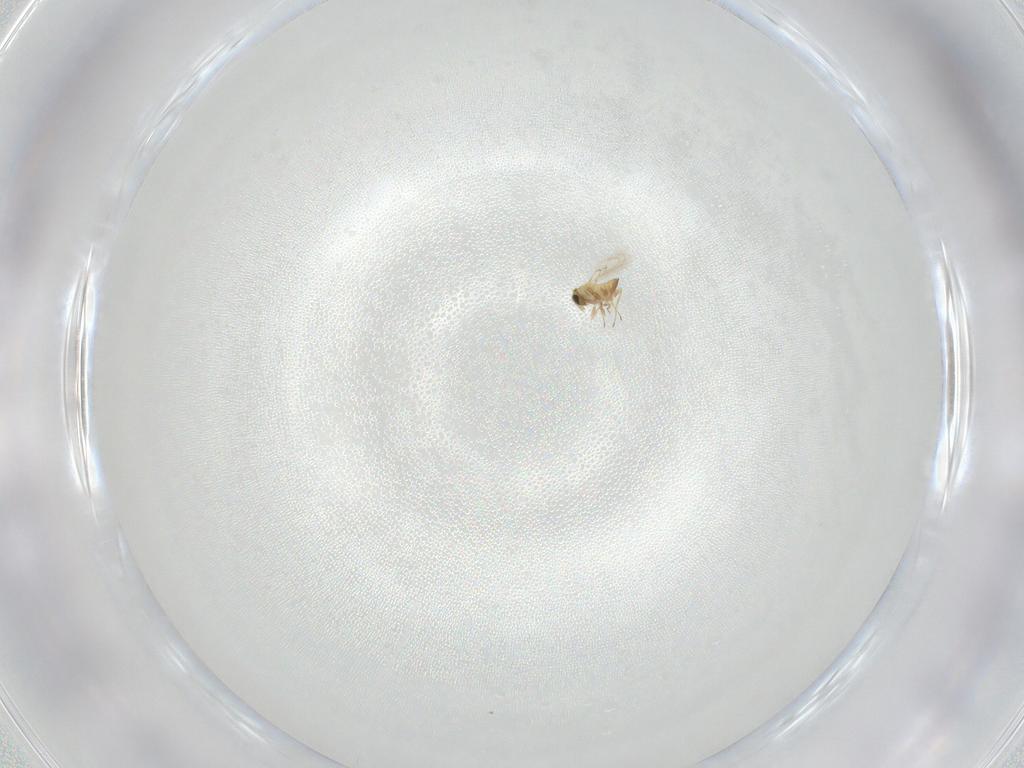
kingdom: Animalia
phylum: Arthropoda
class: Insecta
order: Hymenoptera
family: Trichogrammatidae
